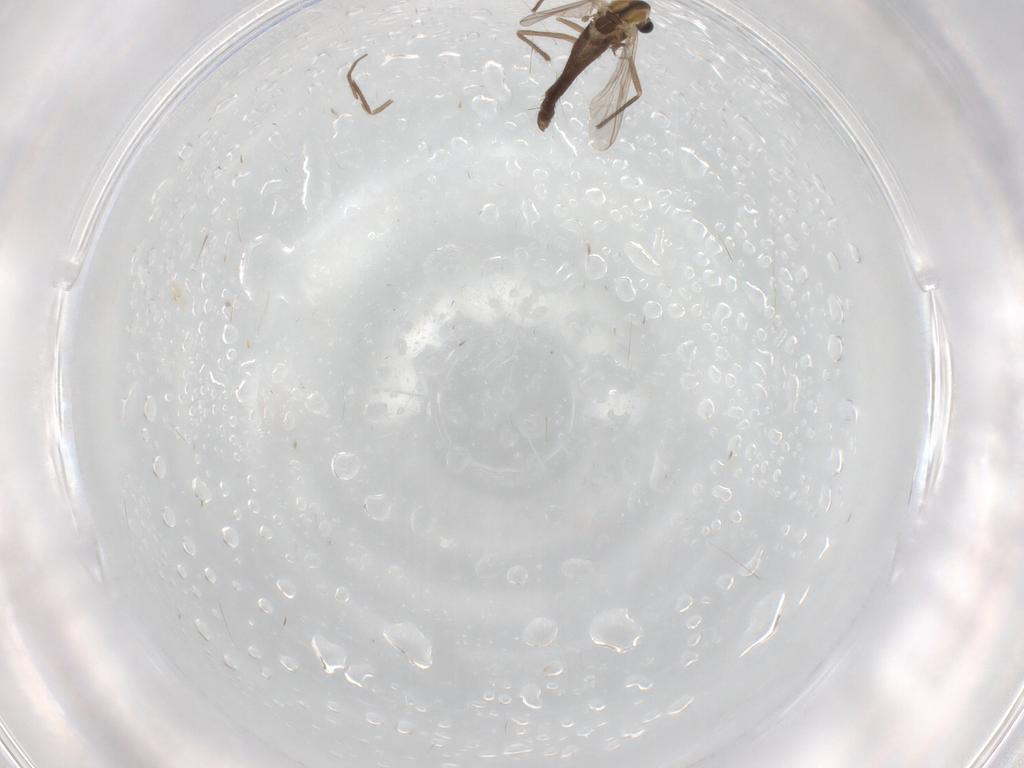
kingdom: Animalia
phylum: Arthropoda
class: Insecta
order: Diptera
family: Chironomidae
